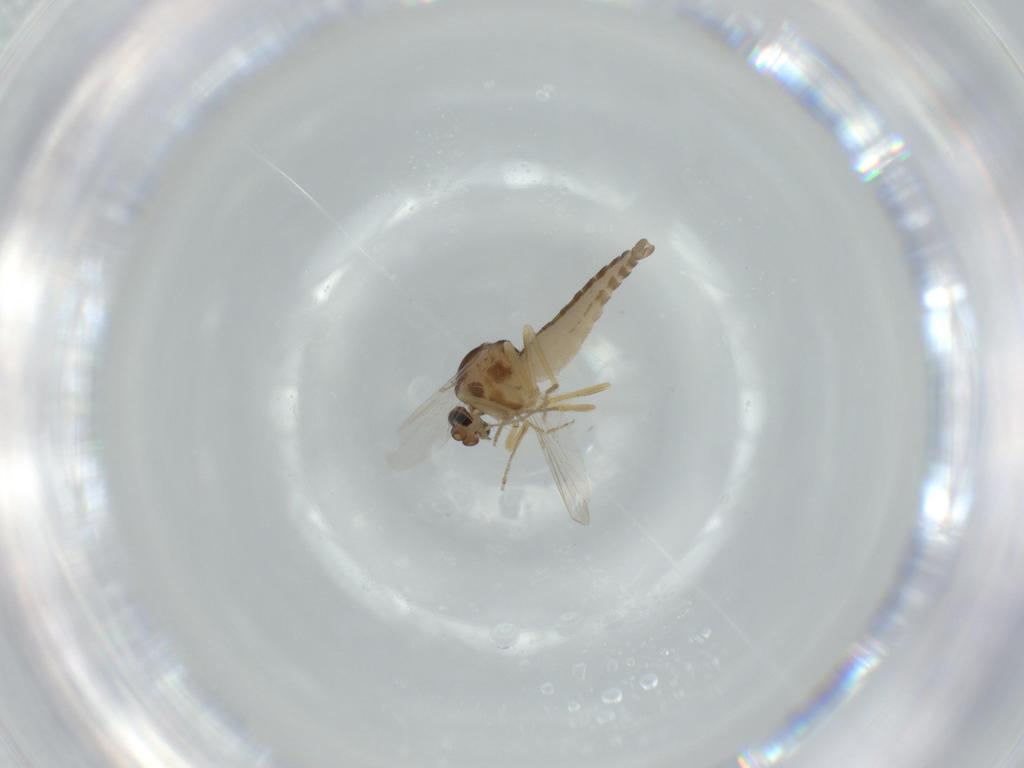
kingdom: Animalia
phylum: Arthropoda
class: Insecta
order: Diptera
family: Ceratopogonidae
